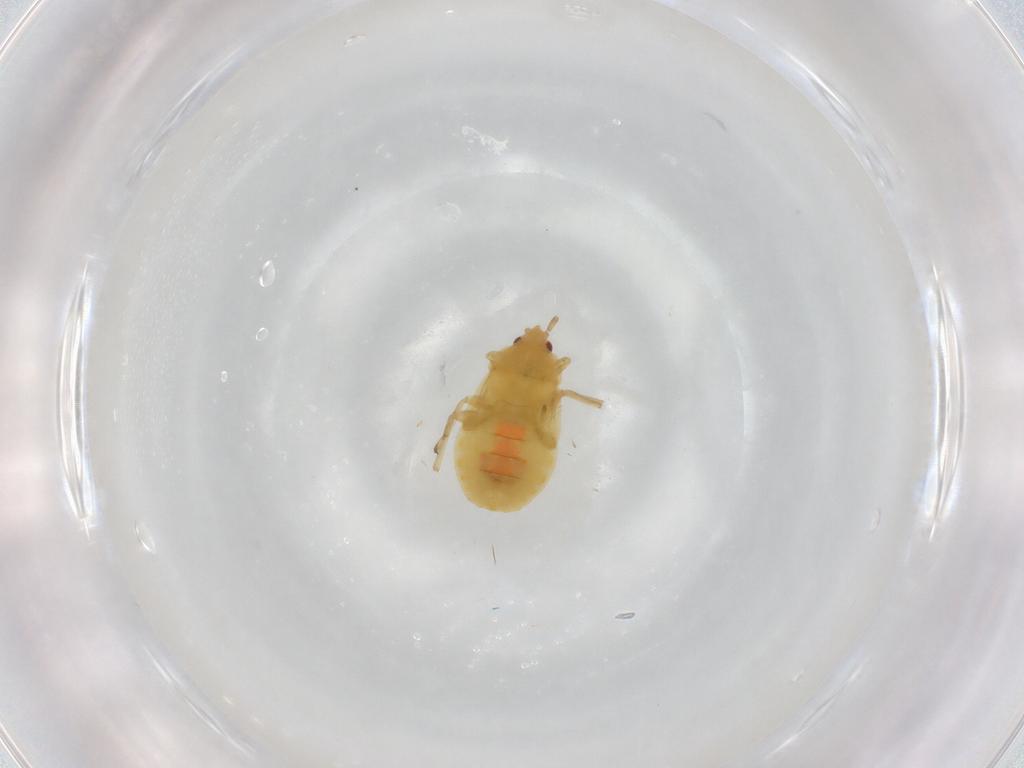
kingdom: Animalia
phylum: Arthropoda
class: Insecta
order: Hemiptera
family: Anthocoridae
